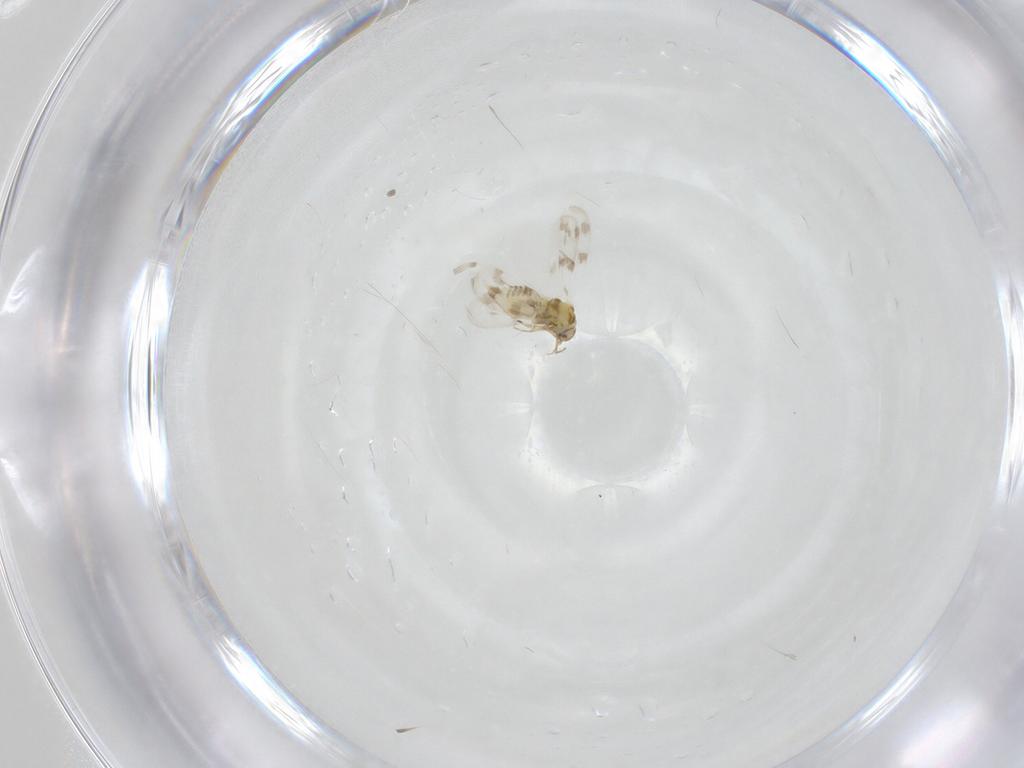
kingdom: Animalia
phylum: Arthropoda
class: Insecta
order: Hemiptera
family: Aleyrodidae
